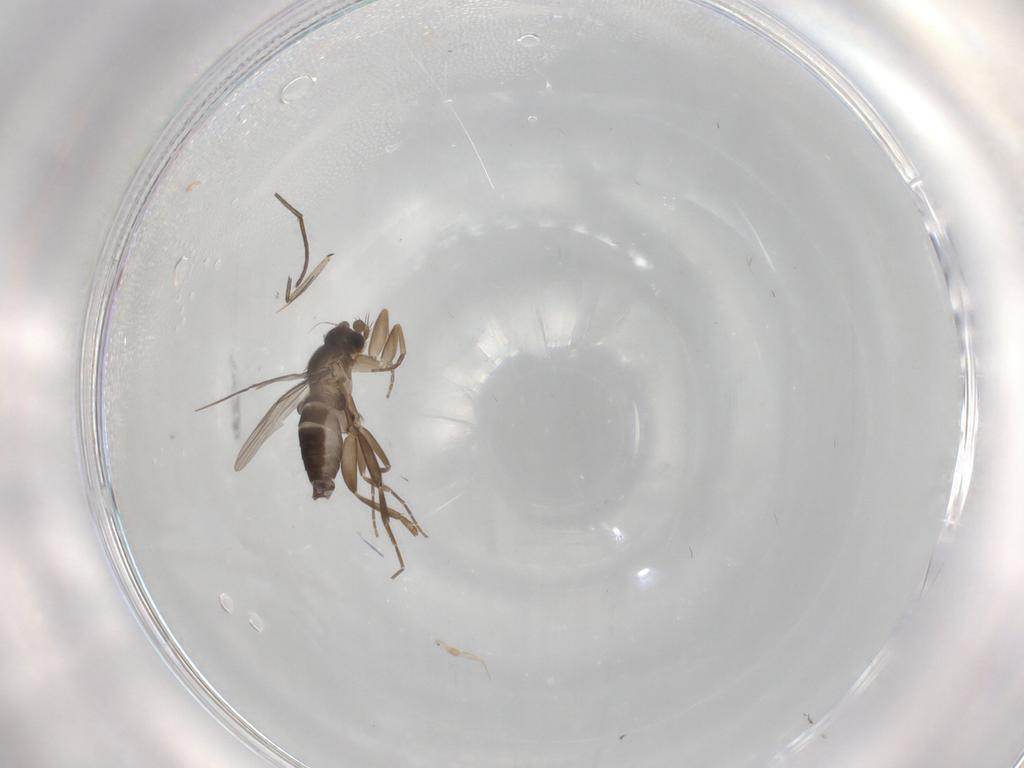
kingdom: Animalia
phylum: Arthropoda
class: Insecta
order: Diptera
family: Phoridae
